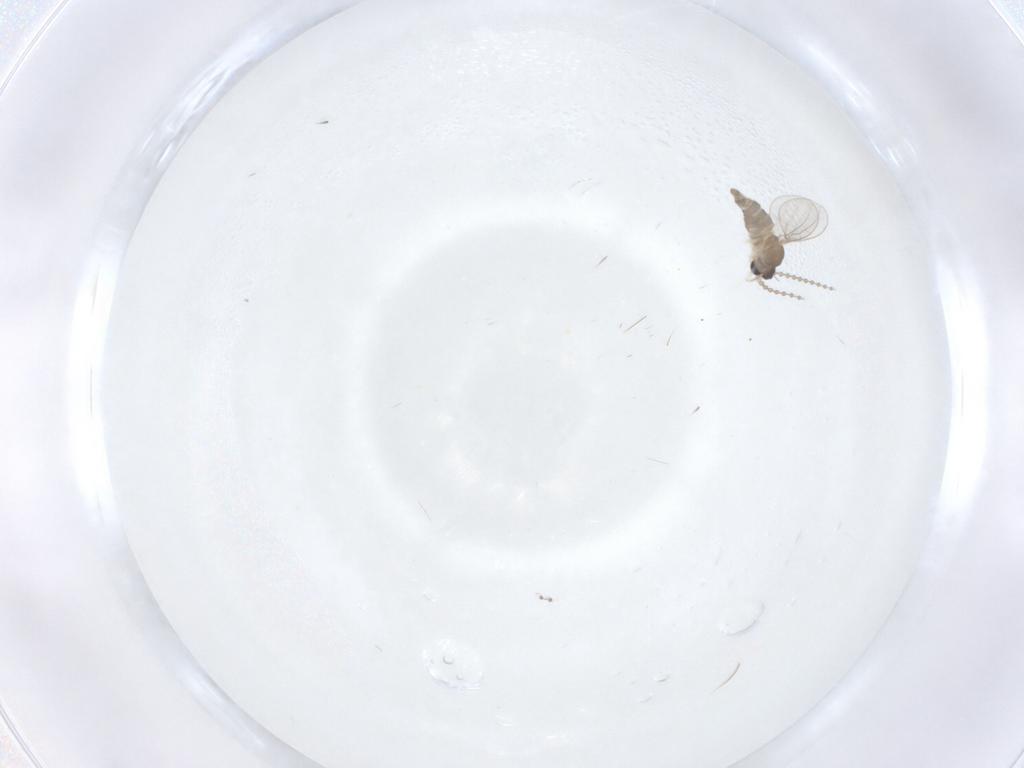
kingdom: Animalia
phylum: Arthropoda
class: Insecta
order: Diptera
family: Cecidomyiidae
